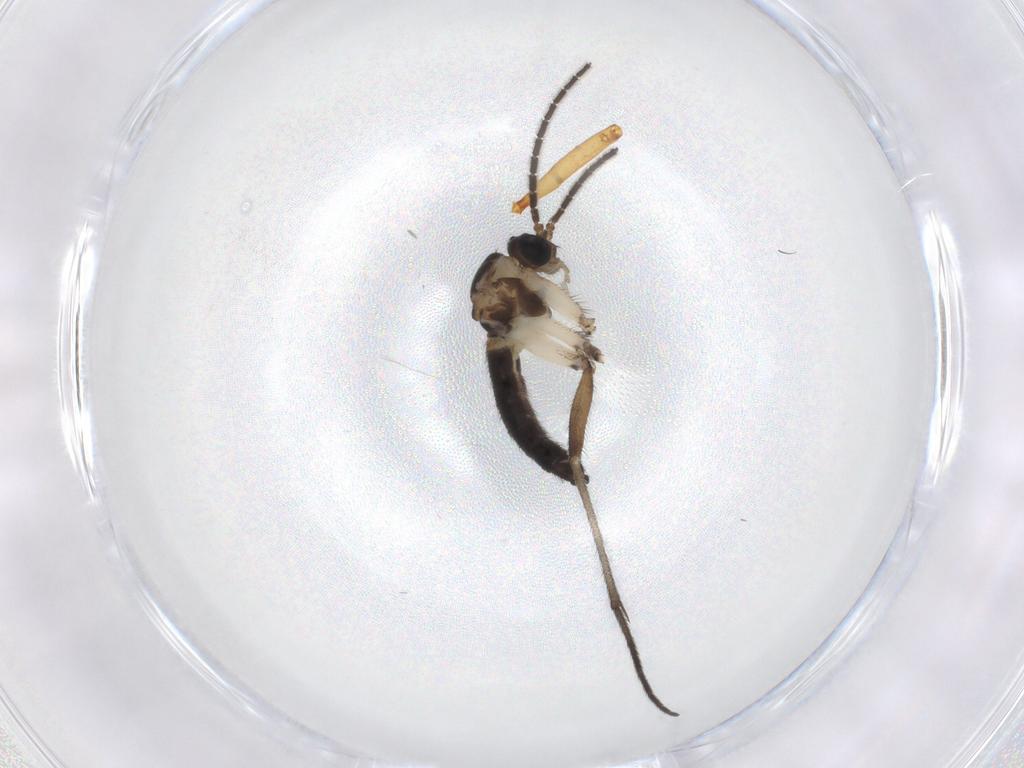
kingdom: Animalia
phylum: Arthropoda
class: Insecta
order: Diptera
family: Sciaridae
